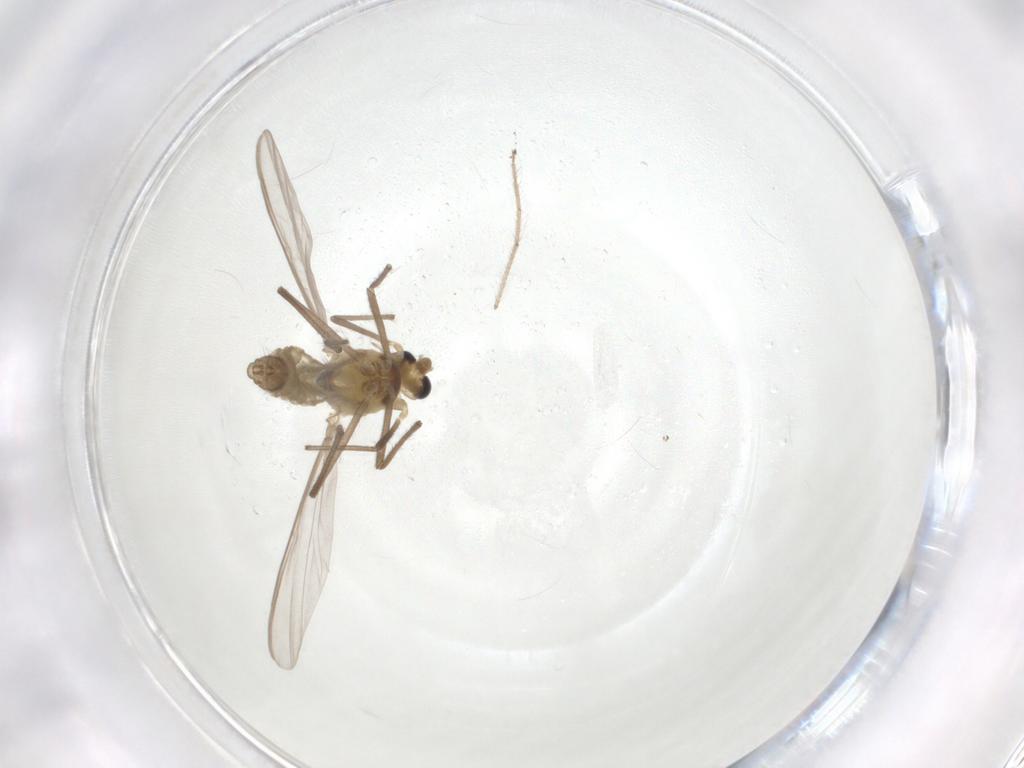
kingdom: Animalia
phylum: Arthropoda
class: Insecta
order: Diptera
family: Chironomidae
